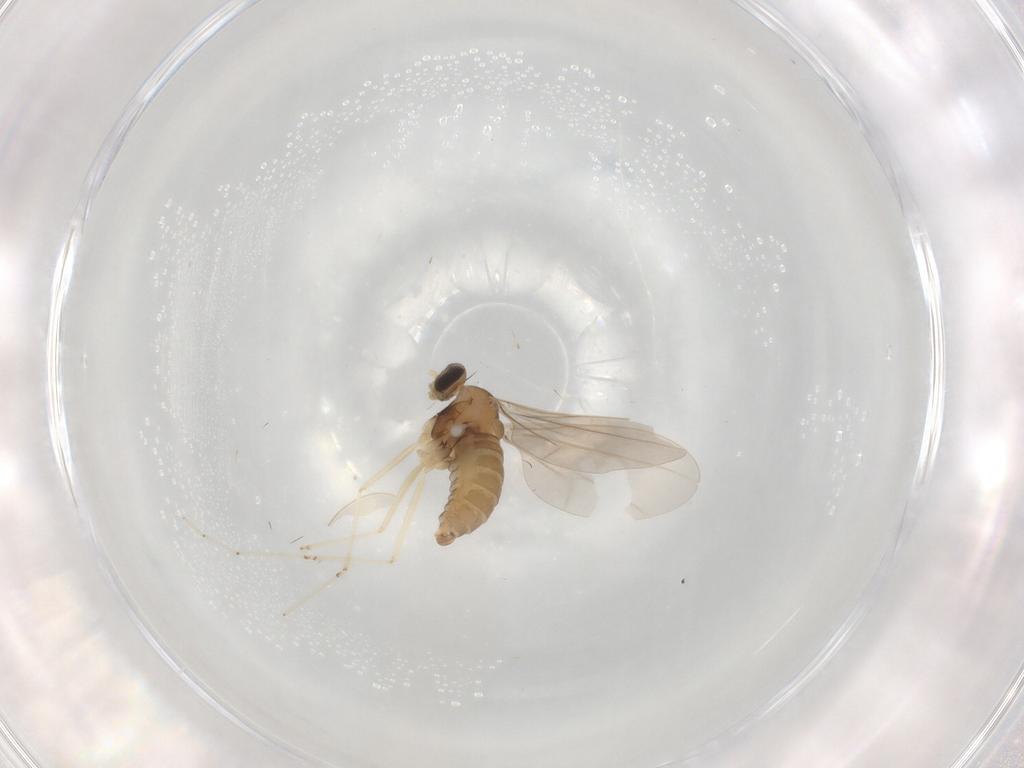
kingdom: Animalia
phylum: Arthropoda
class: Insecta
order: Diptera
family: Cecidomyiidae
